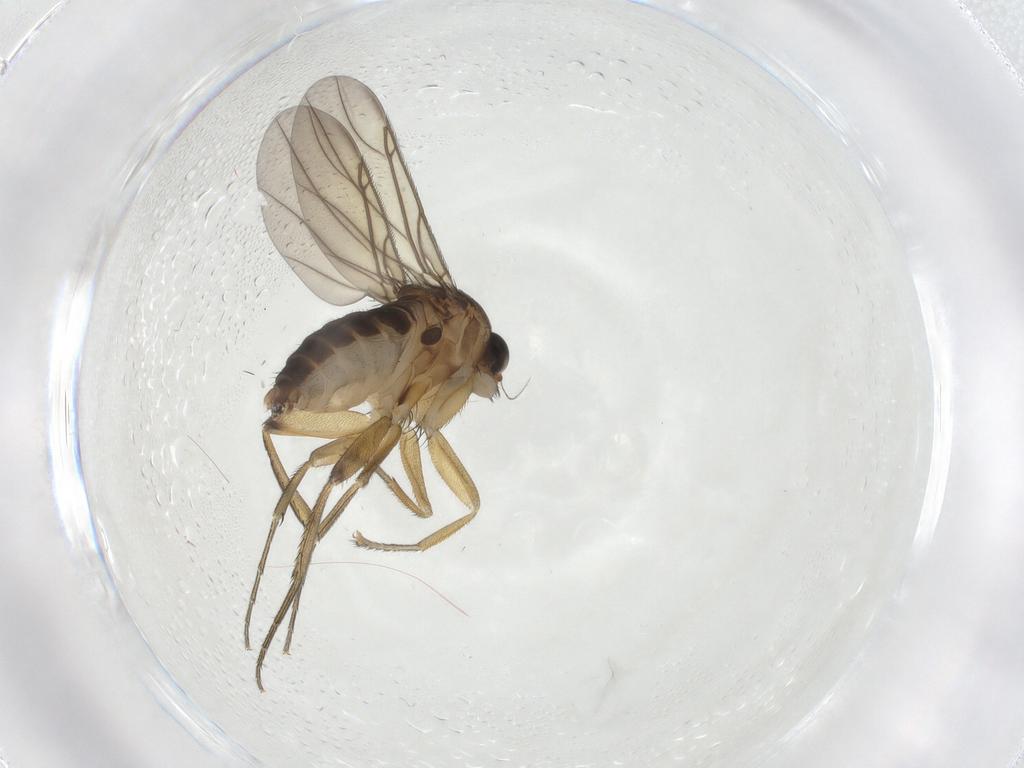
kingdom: Animalia
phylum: Arthropoda
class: Insecta
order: Diptera
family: Phoridae
